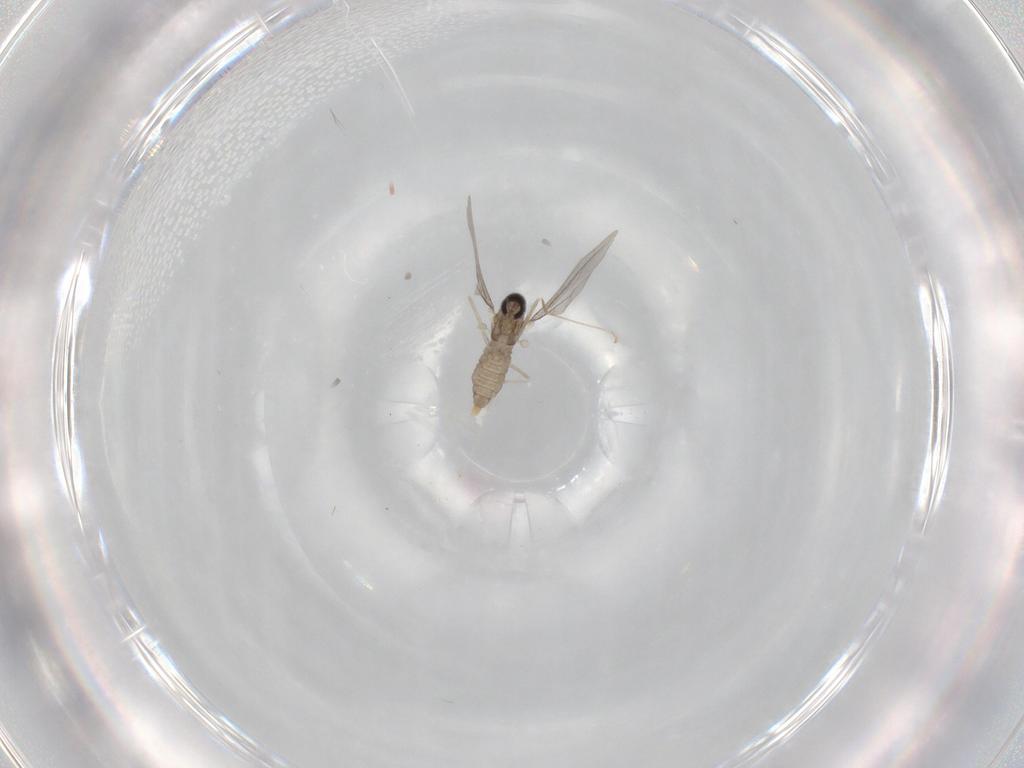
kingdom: Animalia
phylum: Arthropoda
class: Insecta
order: Diptera
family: Cecidomyiidae
